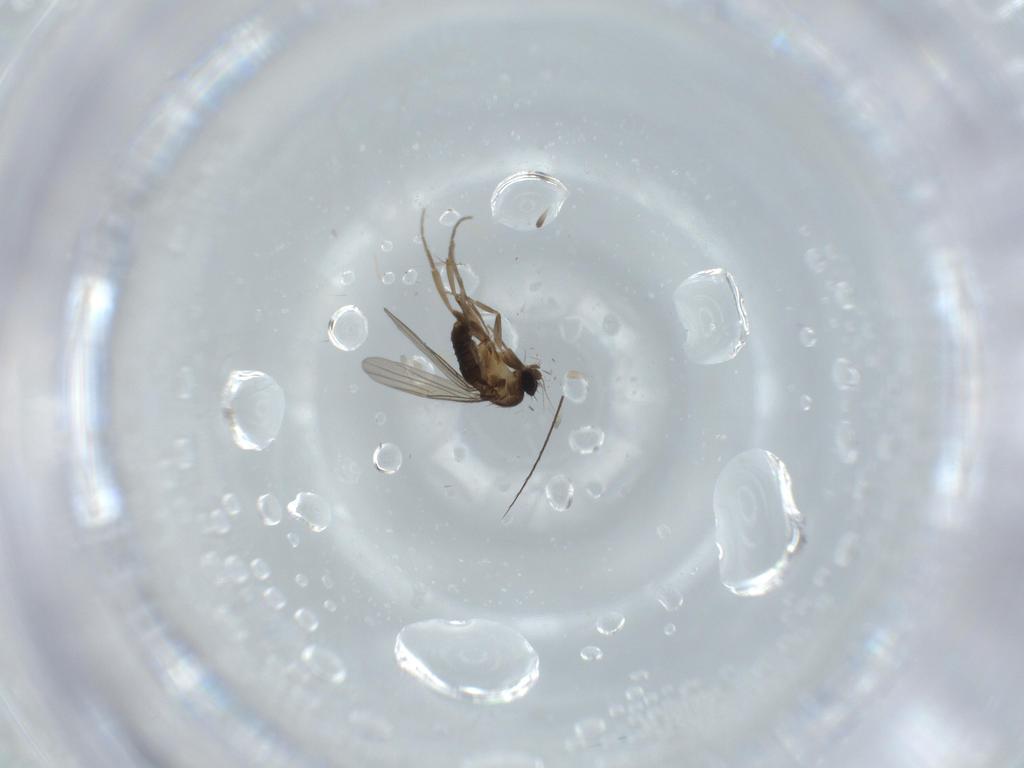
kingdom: Animalia
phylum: Arthropoda
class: Insecta
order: Diptera
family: Phoridae
